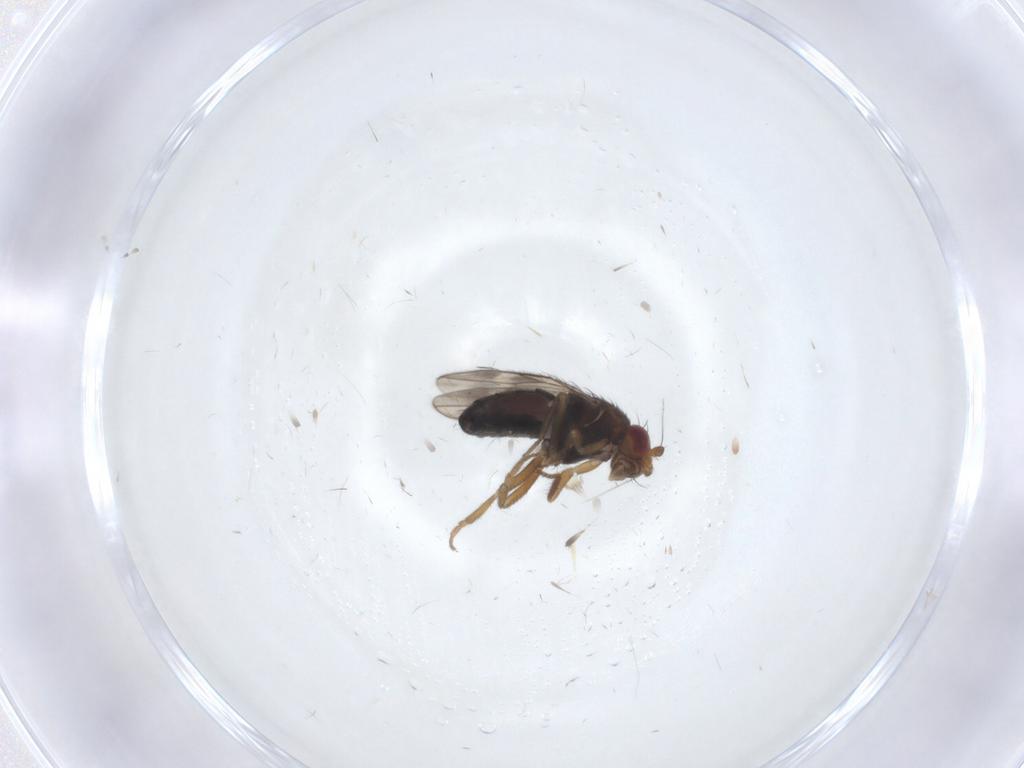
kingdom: Animalia
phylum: Arthropoda
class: Insecta
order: Diptera
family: Sphaeroceridae
